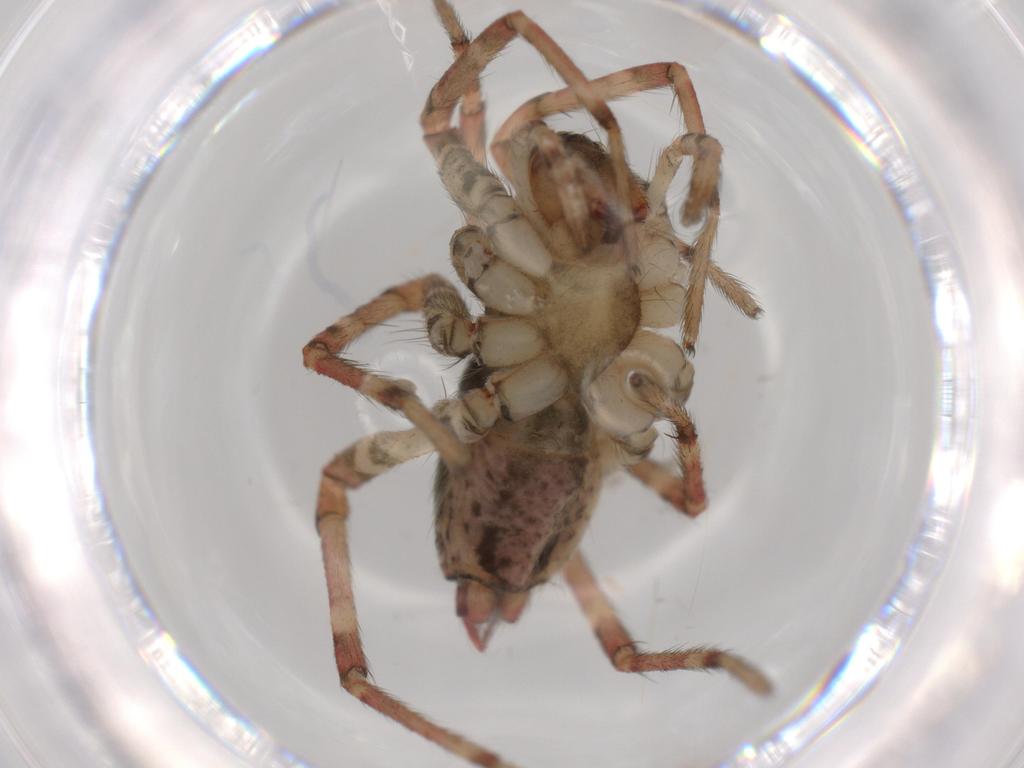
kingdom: Animalia
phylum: Arthropoda
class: Arachnida
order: Araneae
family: Agelenidae
